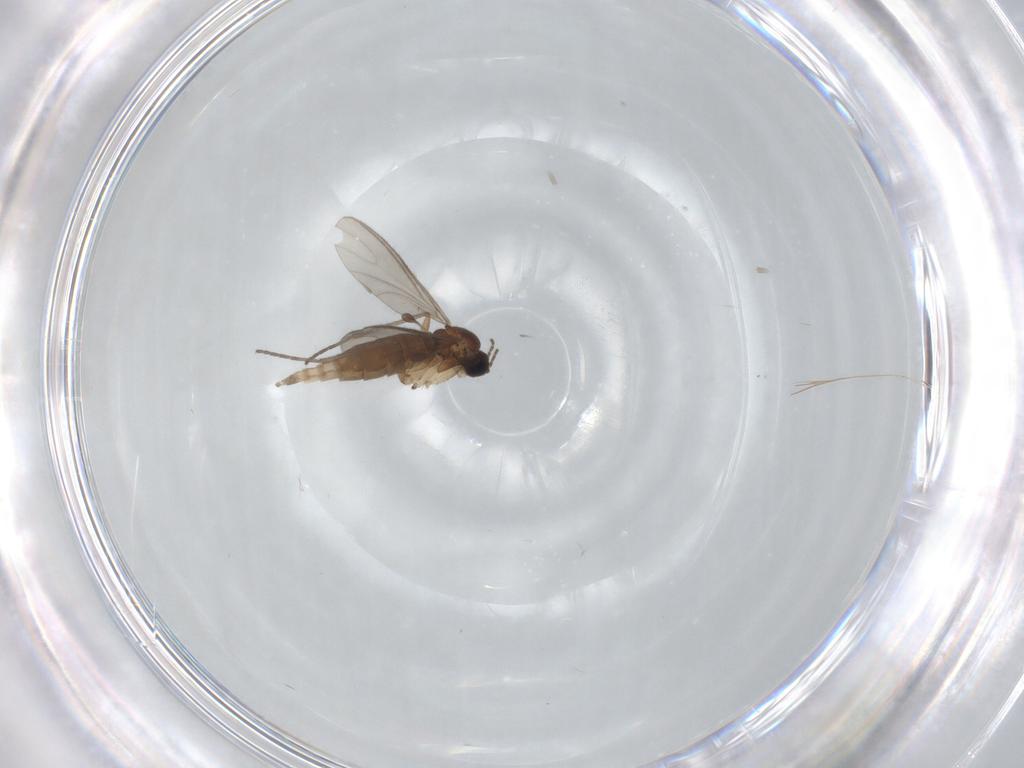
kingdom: Animalia
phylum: Arthropoda
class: Insecta
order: Diptera
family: Sciaridae
